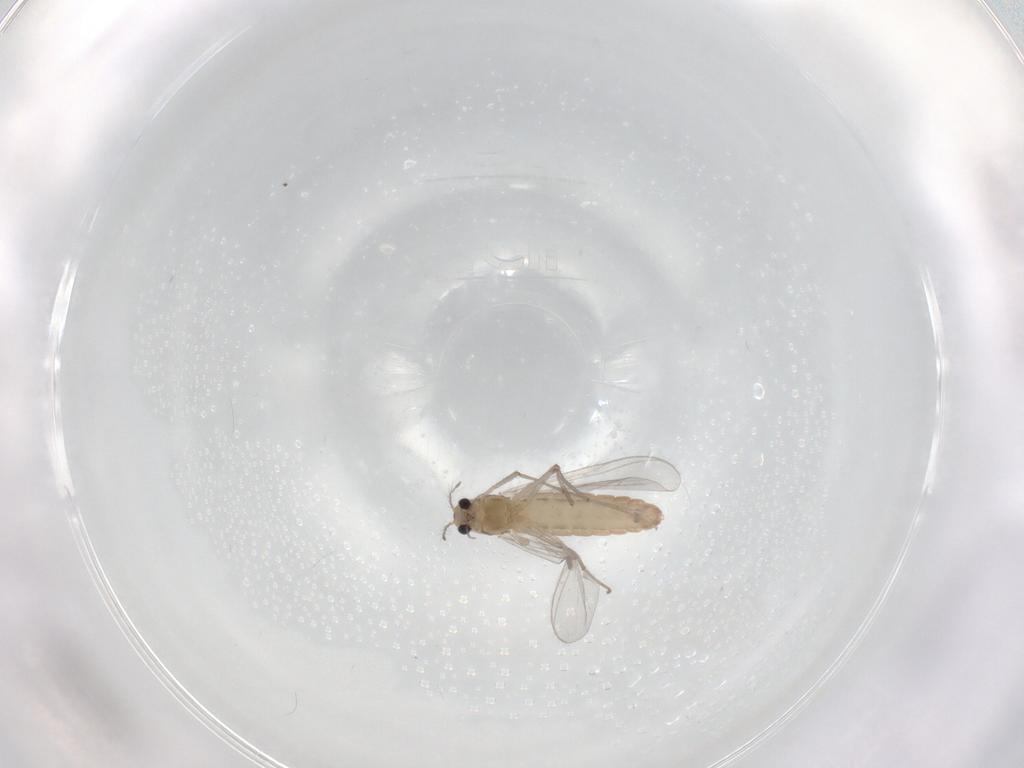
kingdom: Animalia
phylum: Arthropoda
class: Insecta
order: Diptera
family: Chironomidae
